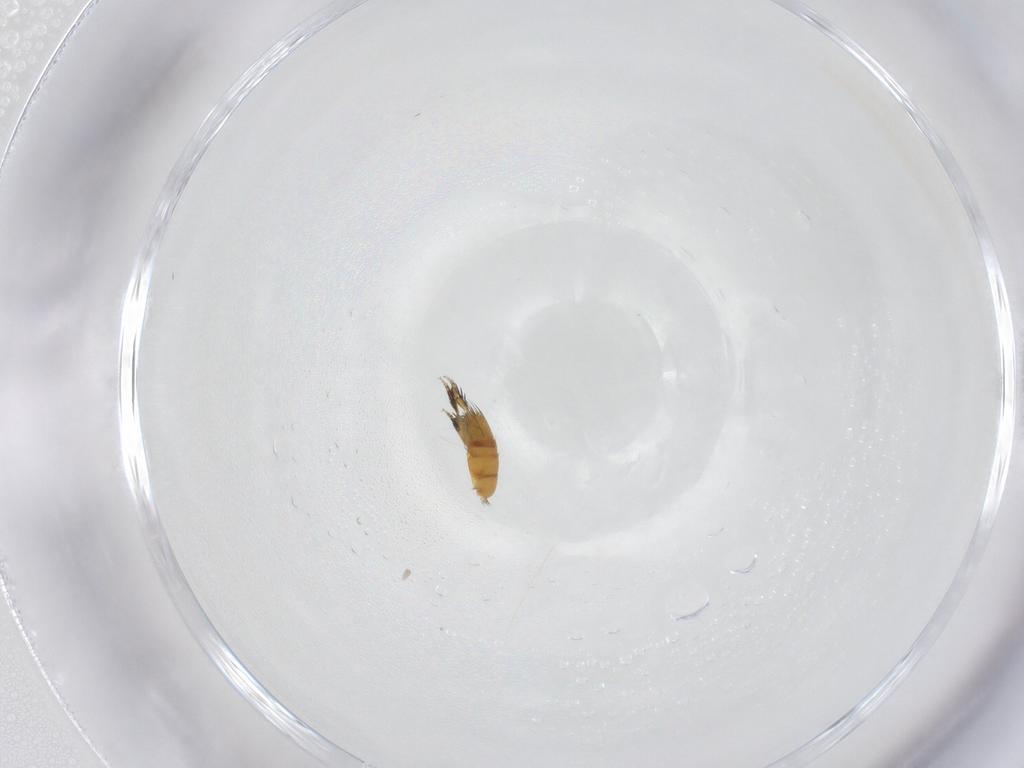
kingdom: Animalia
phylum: Arthropoda
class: Insecta
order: Diptera
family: Phoridae
